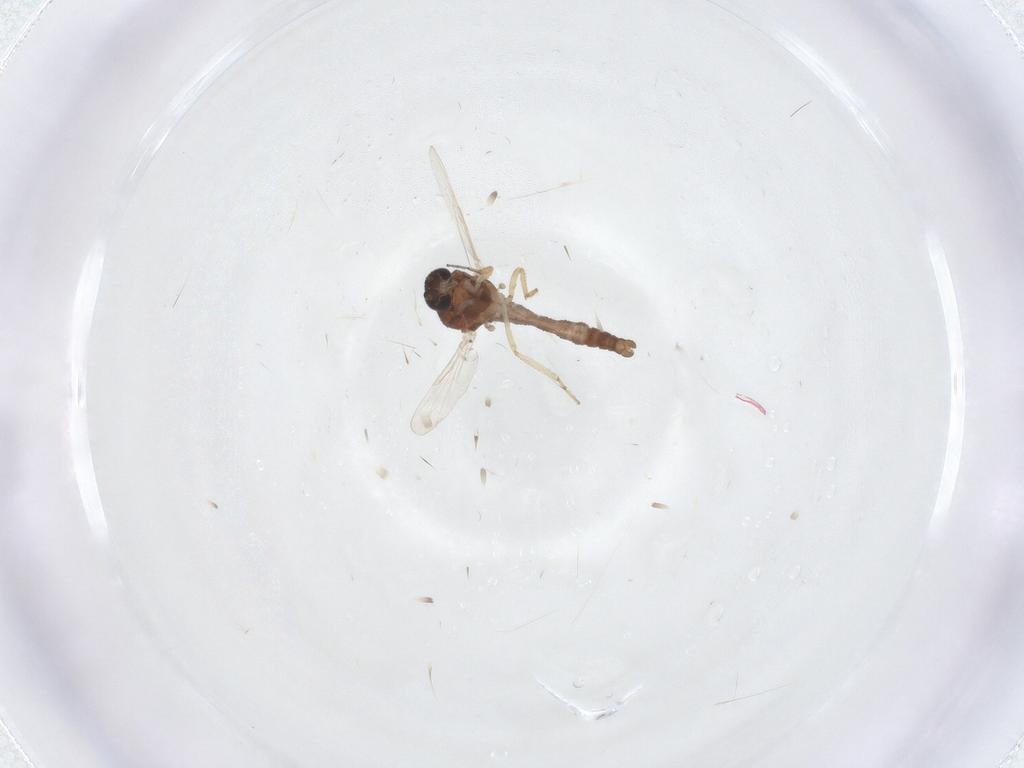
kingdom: Animalia
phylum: Arthropoda
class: Insecta
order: Diptera
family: Ceratopogonidae
